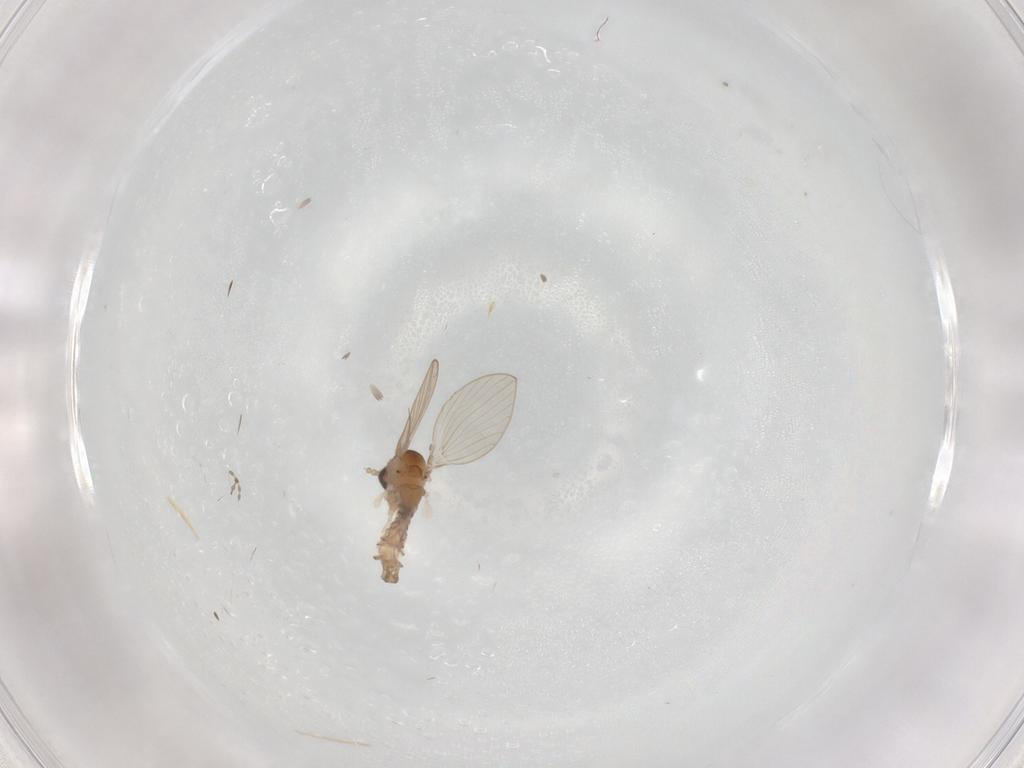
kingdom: Animalia
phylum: Arthropoda
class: Insecta
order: Diptera
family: Psychodidae
